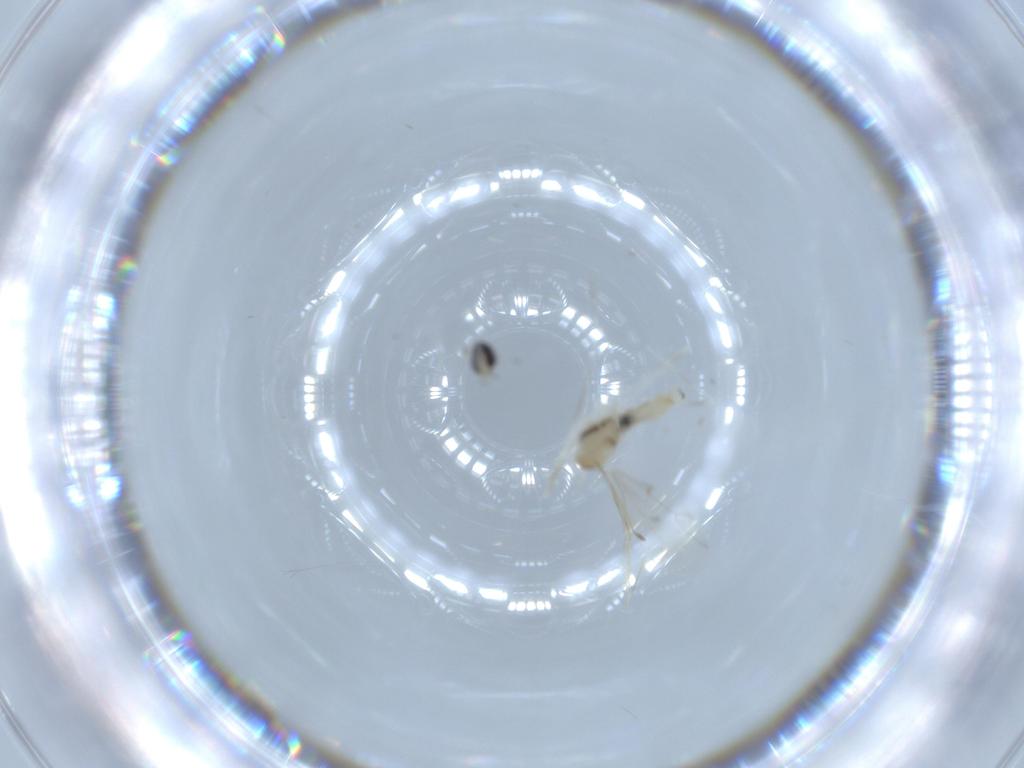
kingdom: Animalia
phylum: Arthropoda
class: Insecta
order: Diptera
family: Cecidomyiidae
